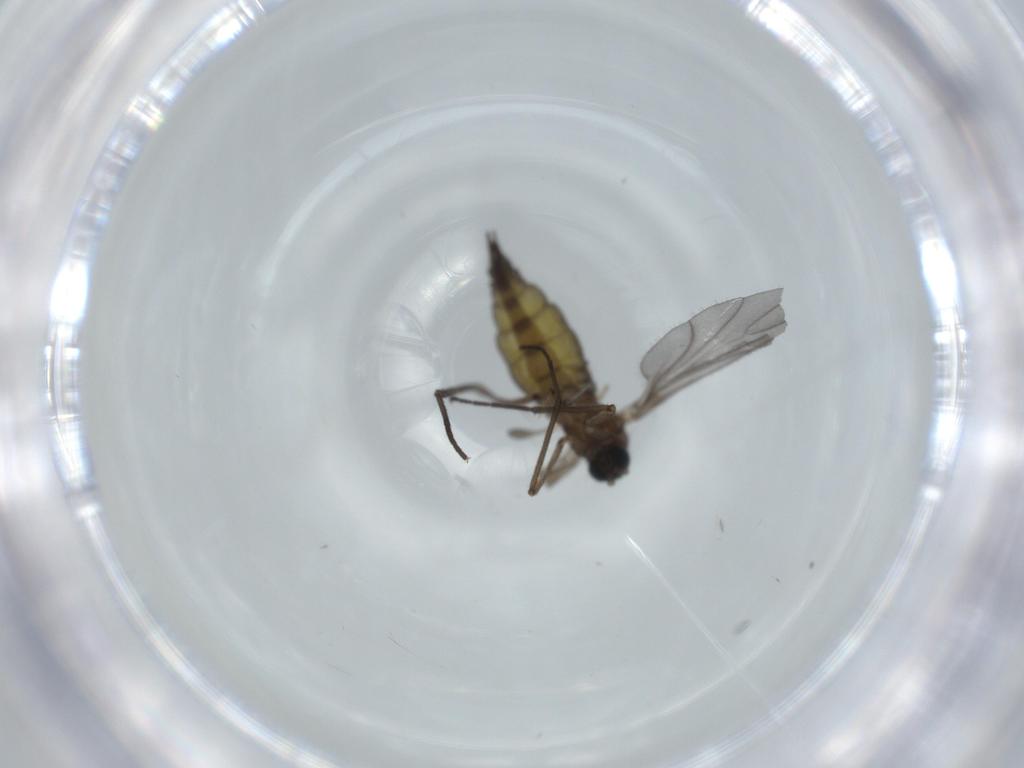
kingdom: Animalia
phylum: Arthropoda
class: Insecta
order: Diptera
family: Sciaridae
